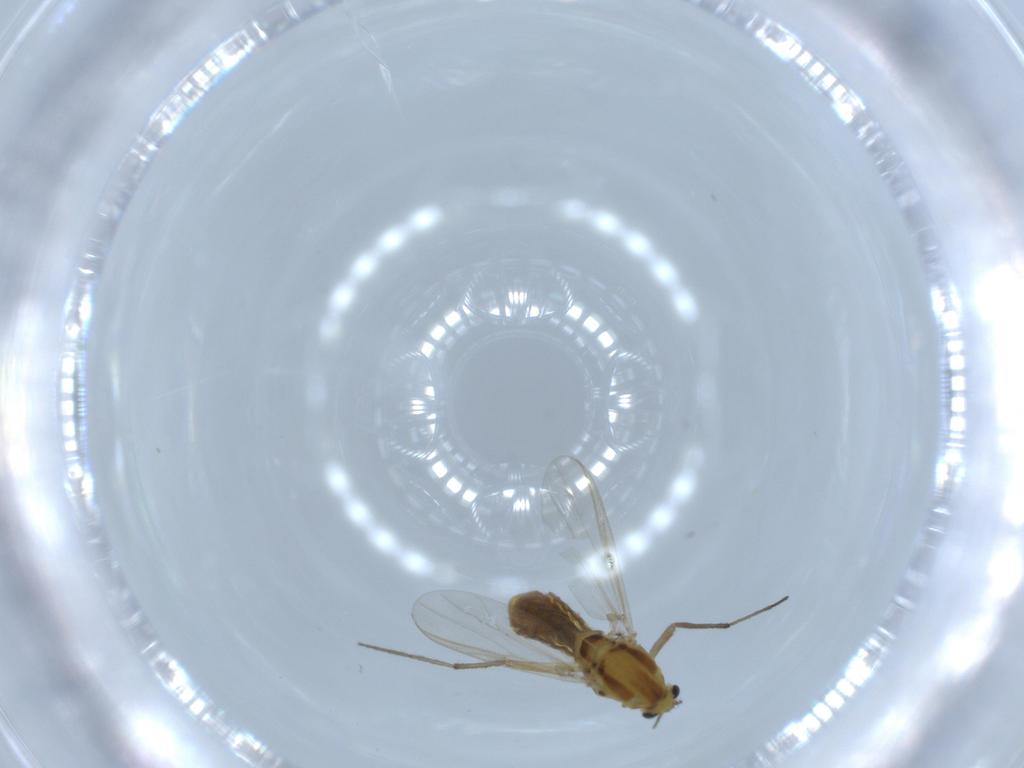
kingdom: Animalia
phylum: Arthropoda
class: Insecta
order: Diptera
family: Chironomidae
